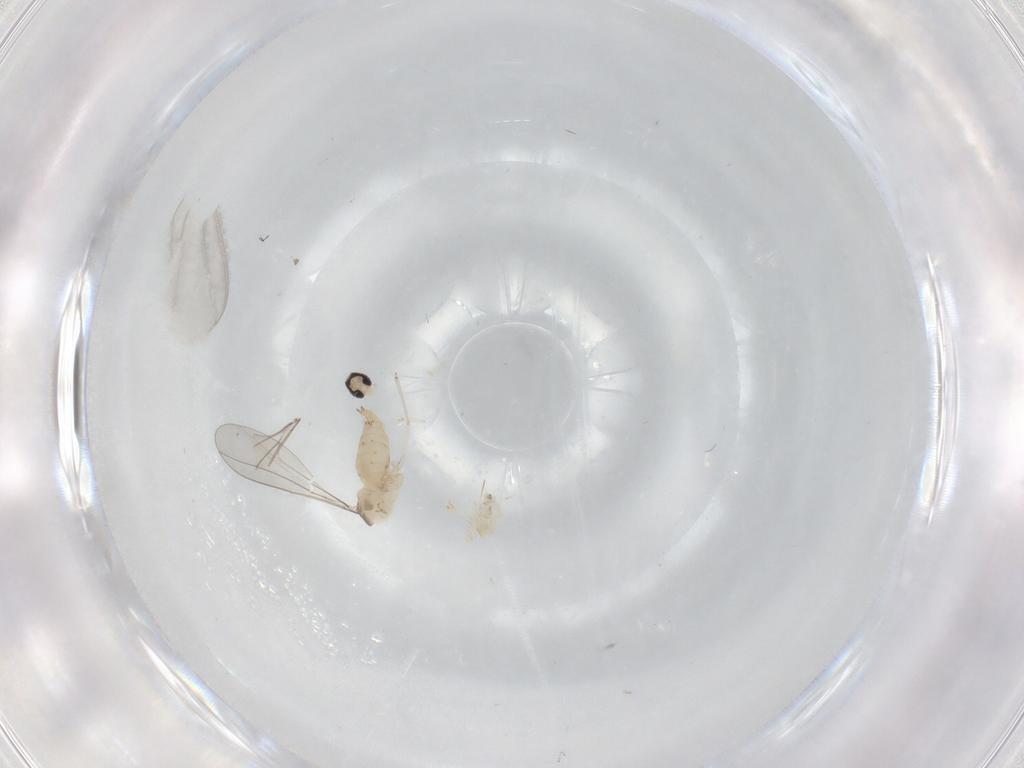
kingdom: Animalia
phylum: Arthropoda
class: Insecta
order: Diptera
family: Cecidomyiidae
